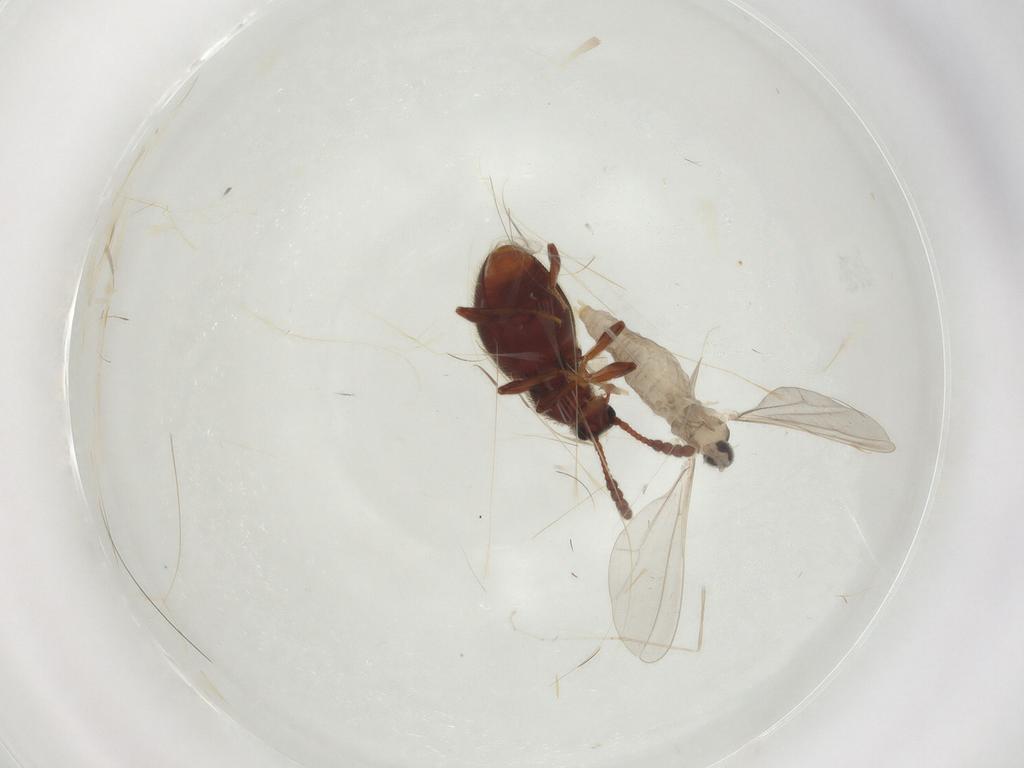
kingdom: Animalia
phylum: Arthropoda
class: Insecta
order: Diptera
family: Cecidomyiidae
